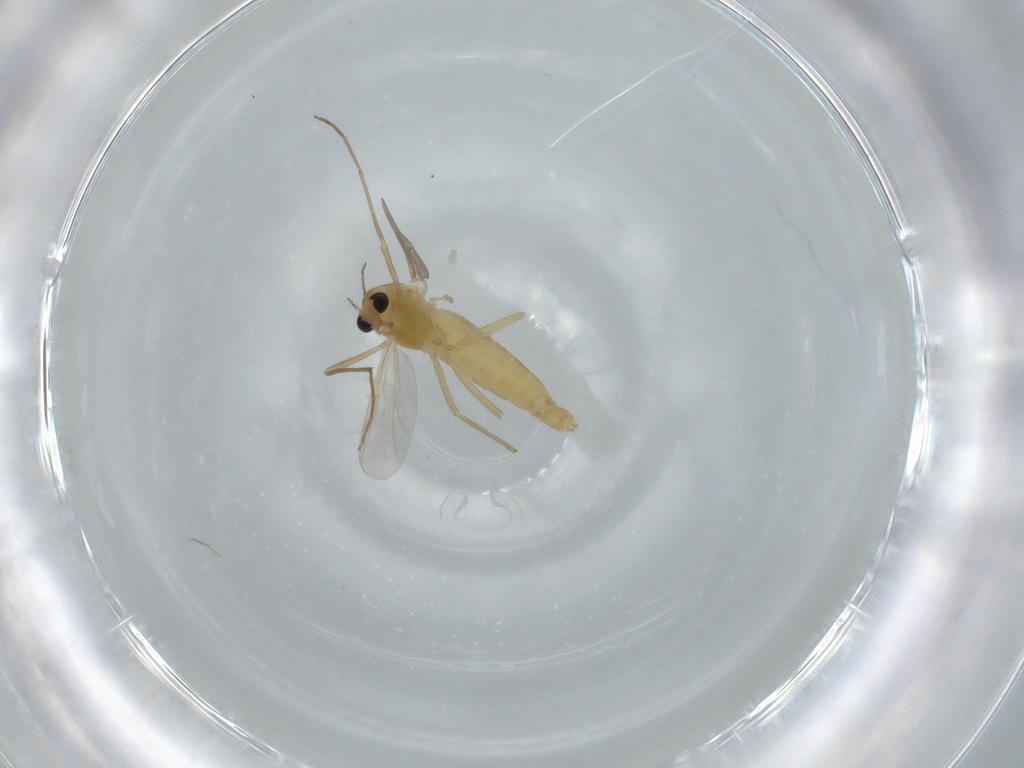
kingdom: Animalia
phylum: Arthropoda
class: Insecta
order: Diptera
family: Chironomidae
